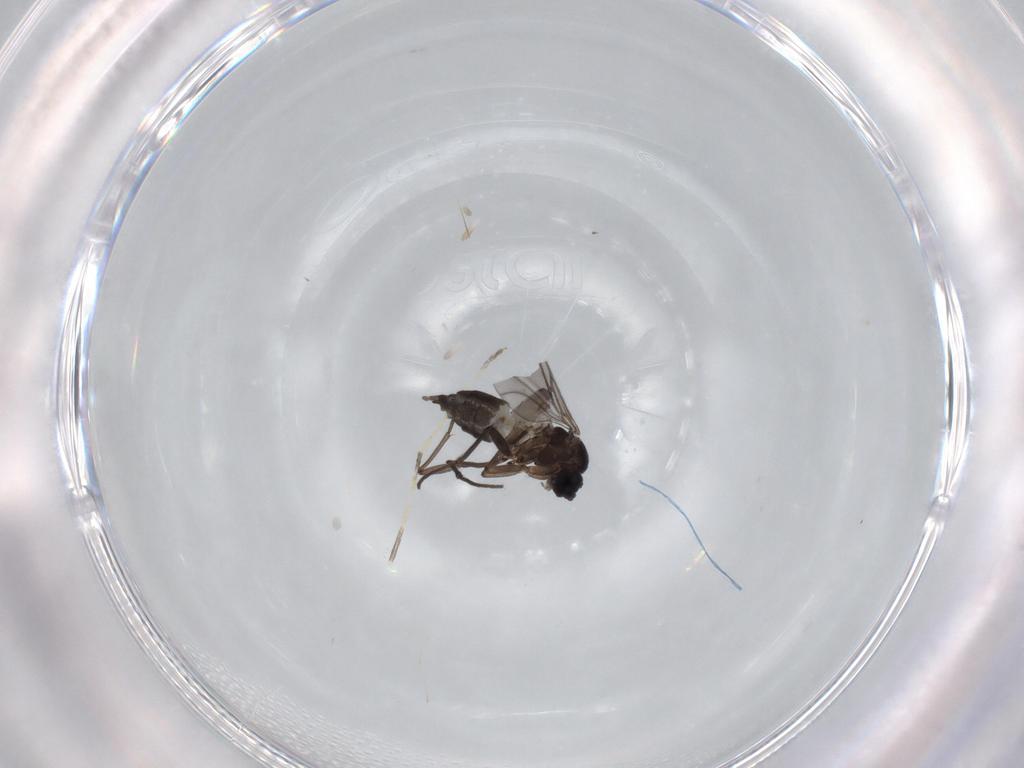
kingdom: Animalia
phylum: Arthropoda
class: Insecta
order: Diptera
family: Sciaridae
